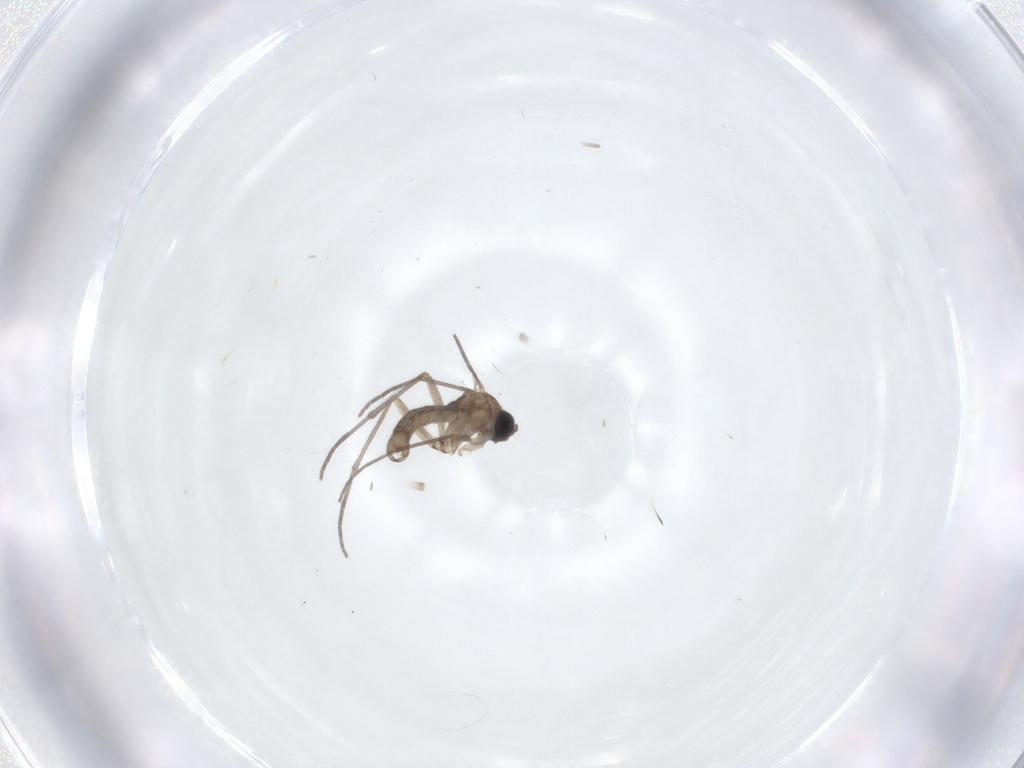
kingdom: Animalia
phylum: Arthropoda
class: Insecta
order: Diptera
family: Sciaridae
